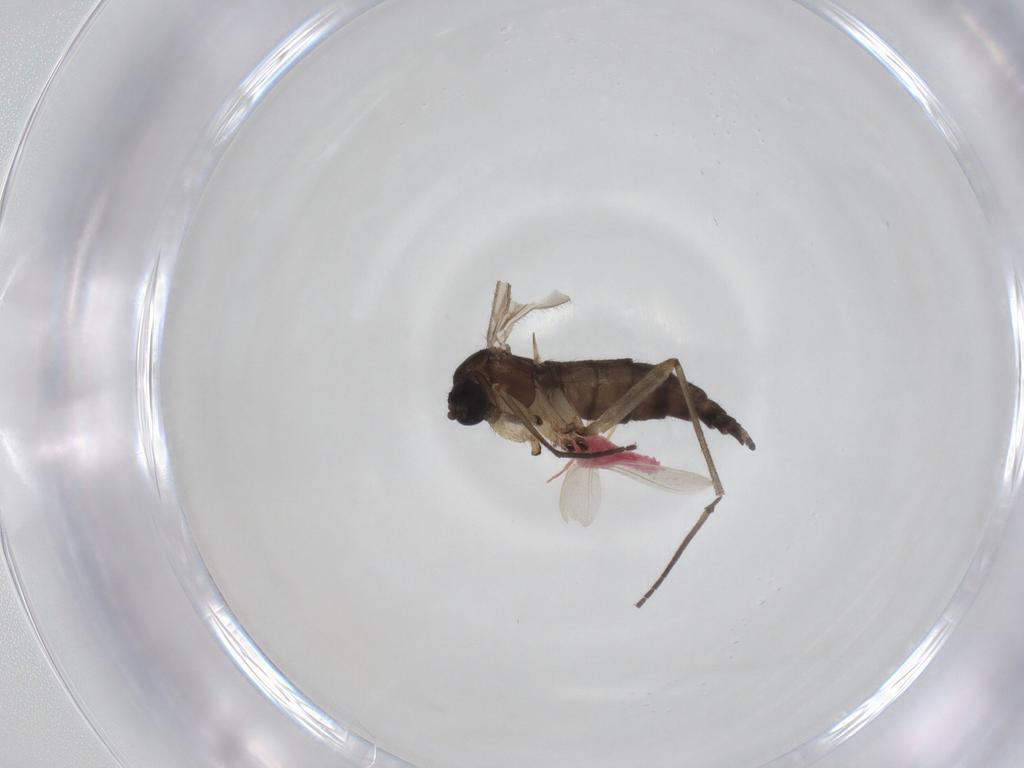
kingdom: Animalia
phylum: Arthropoda
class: Insecta
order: Diptera
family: Sciaridae
